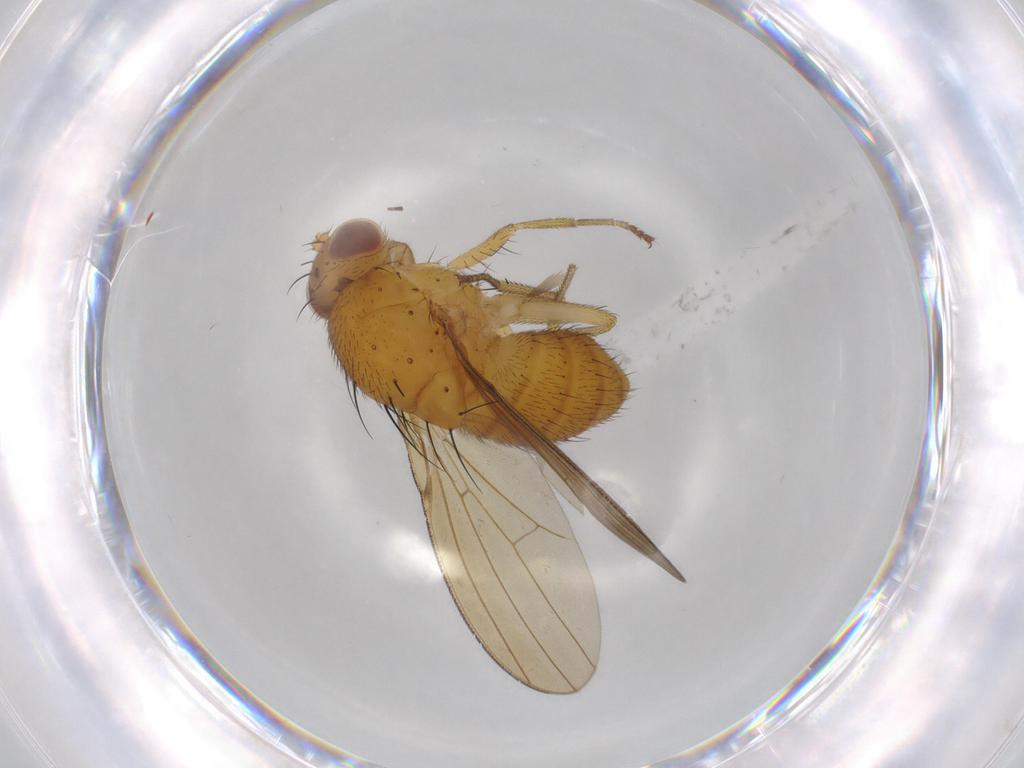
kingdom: Animalia
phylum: Arthropoda
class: Insecta
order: Diptera
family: Lauxaniidae
